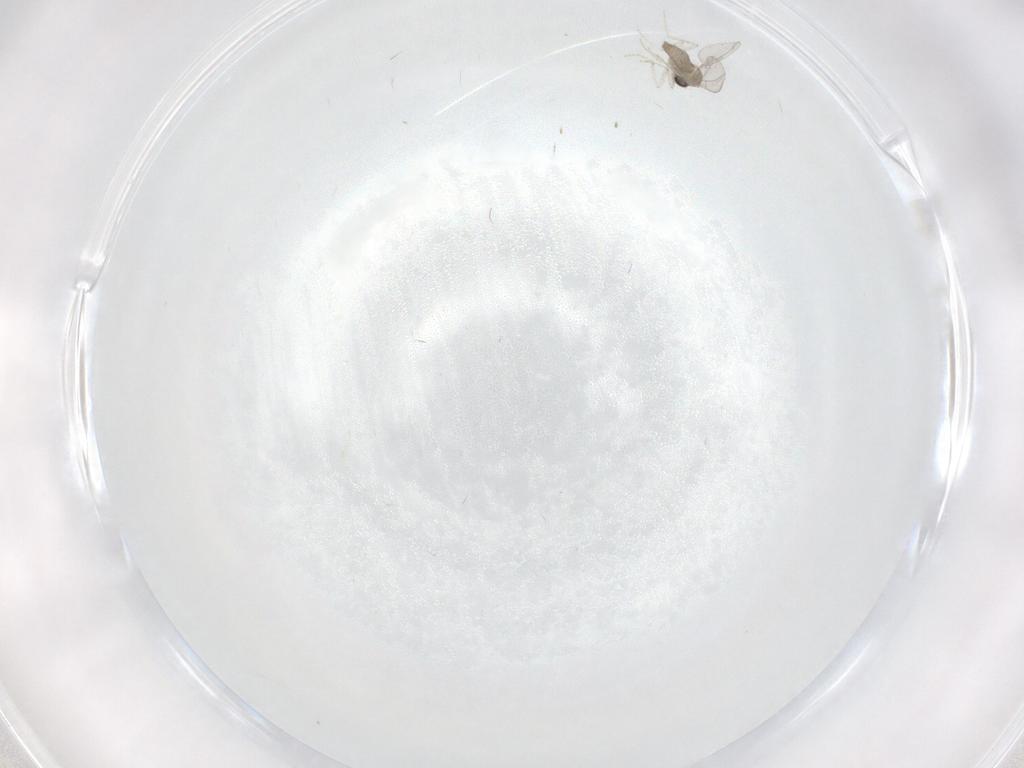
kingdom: Animalia
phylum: Arthropoda
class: Insecta
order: Diptera
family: Cecidomyiidae
